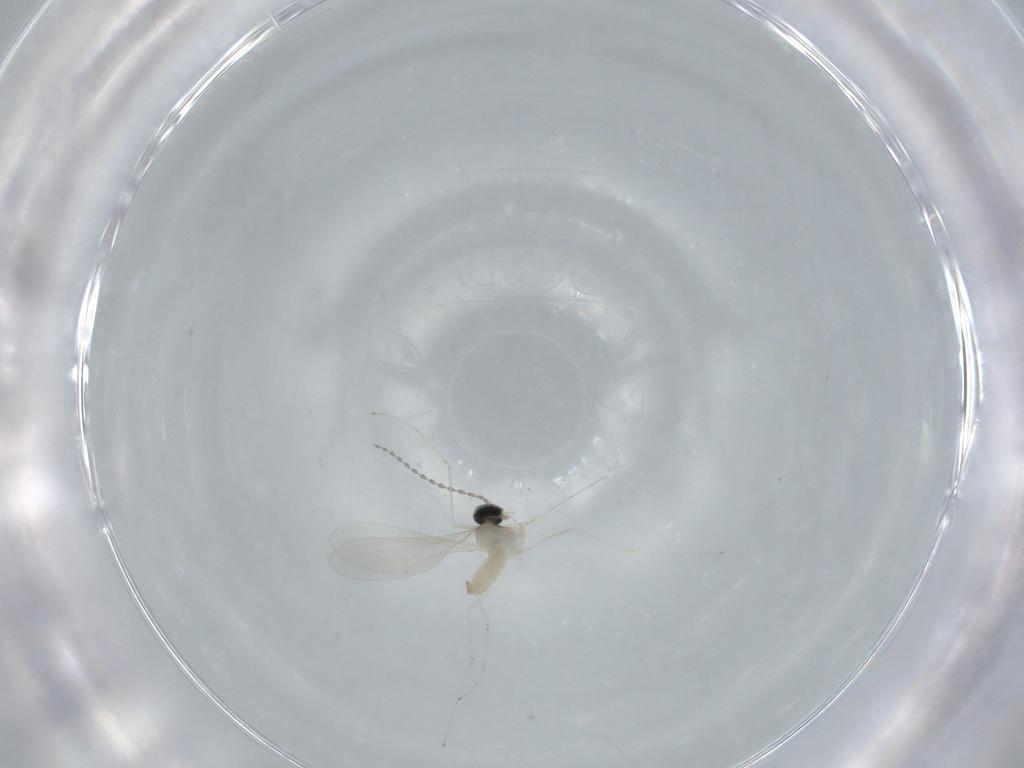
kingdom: Animalia
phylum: Arthropoda
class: Insecta
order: Diptera
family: Cecidomyiidae
